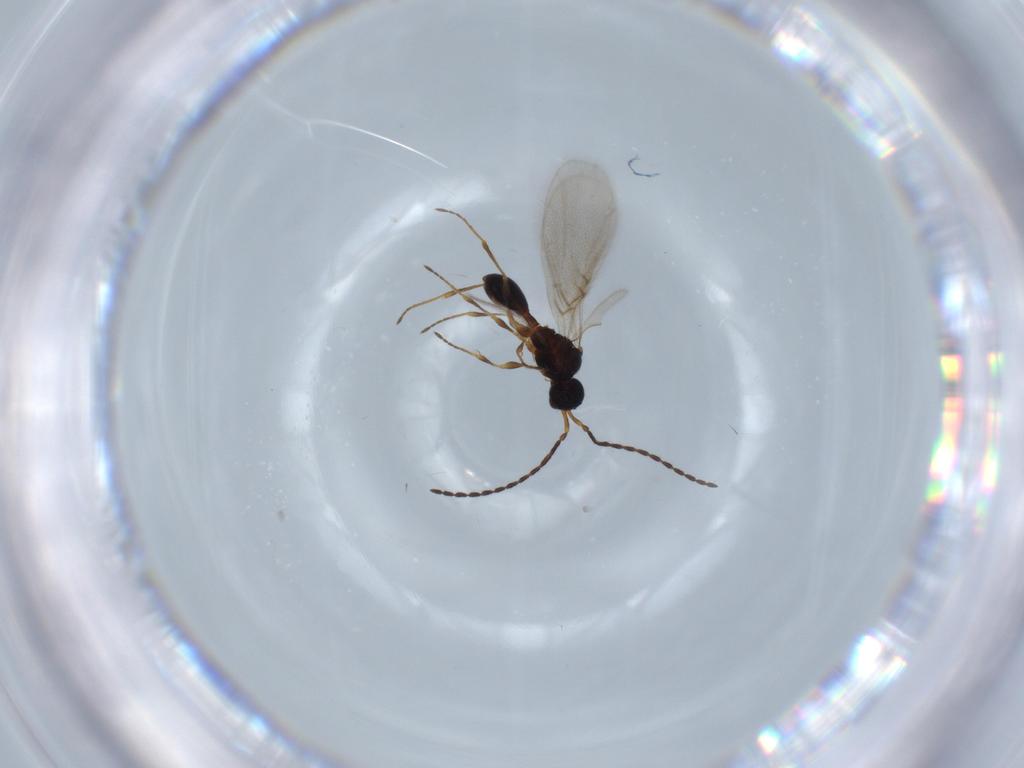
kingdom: Animalia
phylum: Arthropoda
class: Insecta
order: Hymenoptera
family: Diapriidae
